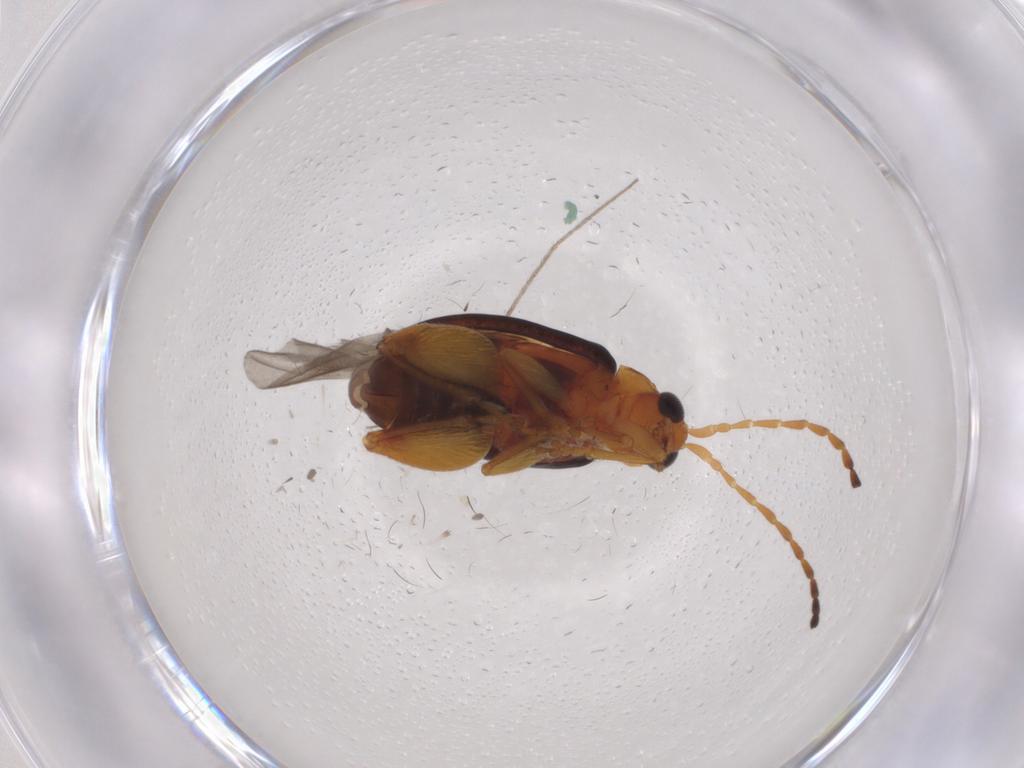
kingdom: Animalia
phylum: Arthropoda
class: Insecta
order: Coleoptera
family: Chrysomelidae
